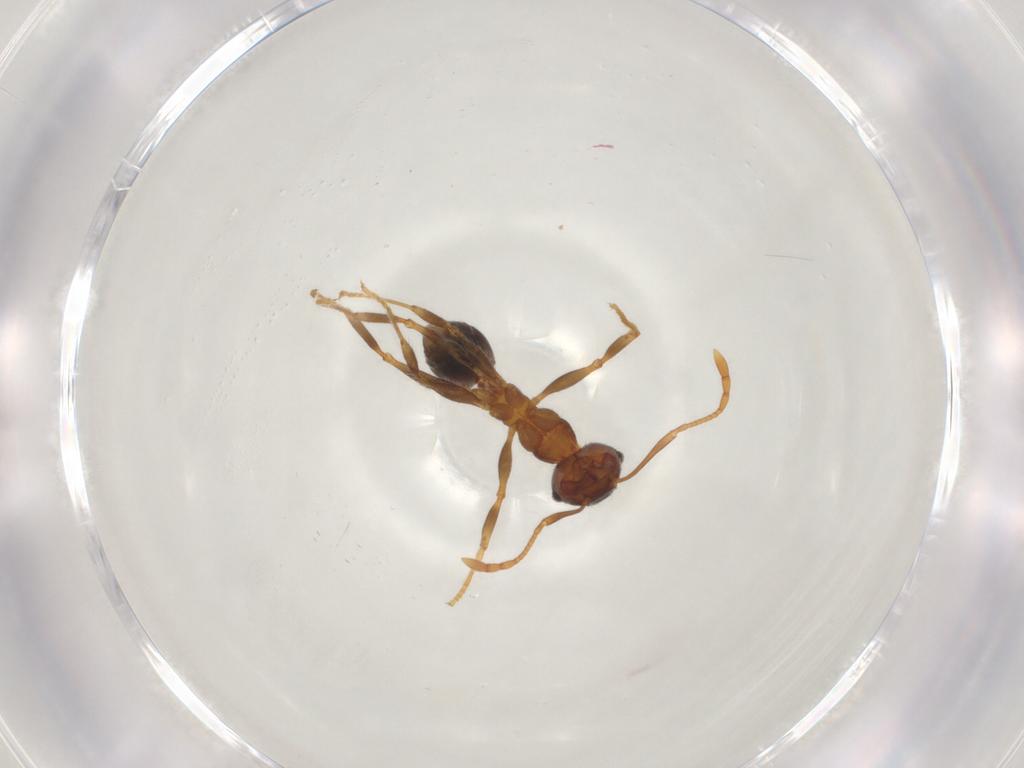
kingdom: Animalia
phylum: Arthropoda
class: Insecta
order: Hymenoptera
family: Formicidae
